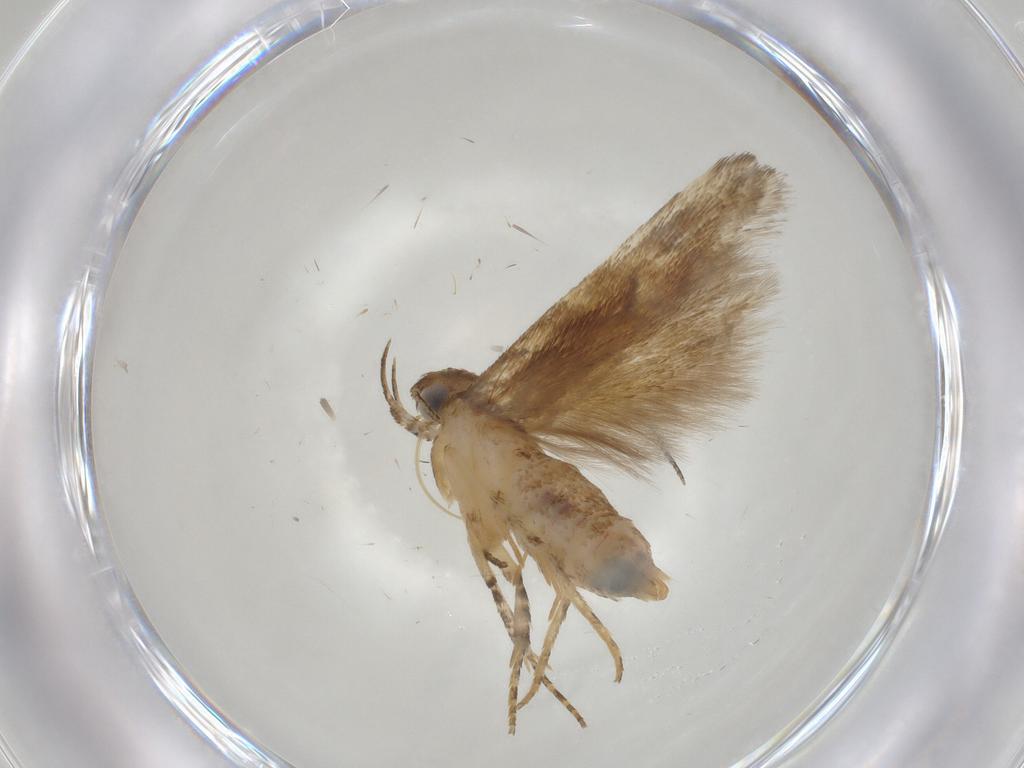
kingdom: Animalia
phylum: Arthropoda
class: Insecta
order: Lepidoptera
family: Gelechiidae
